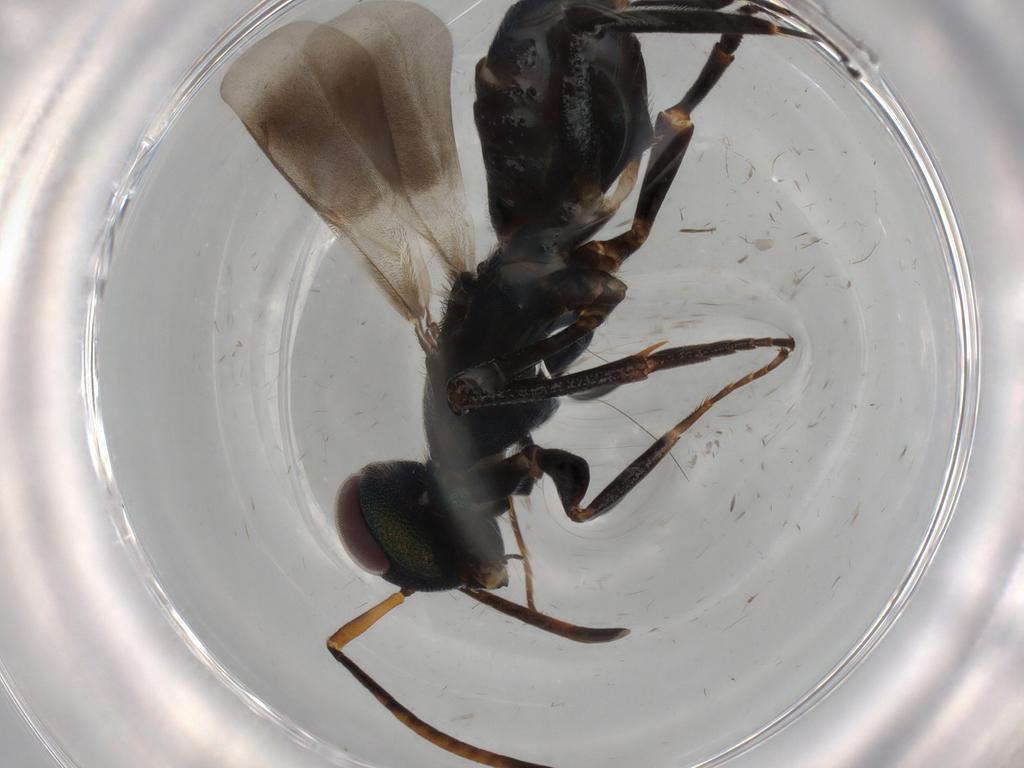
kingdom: Animalia
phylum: Arthropoda
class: Insecta
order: Hymenoptera
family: Eupelmidae
